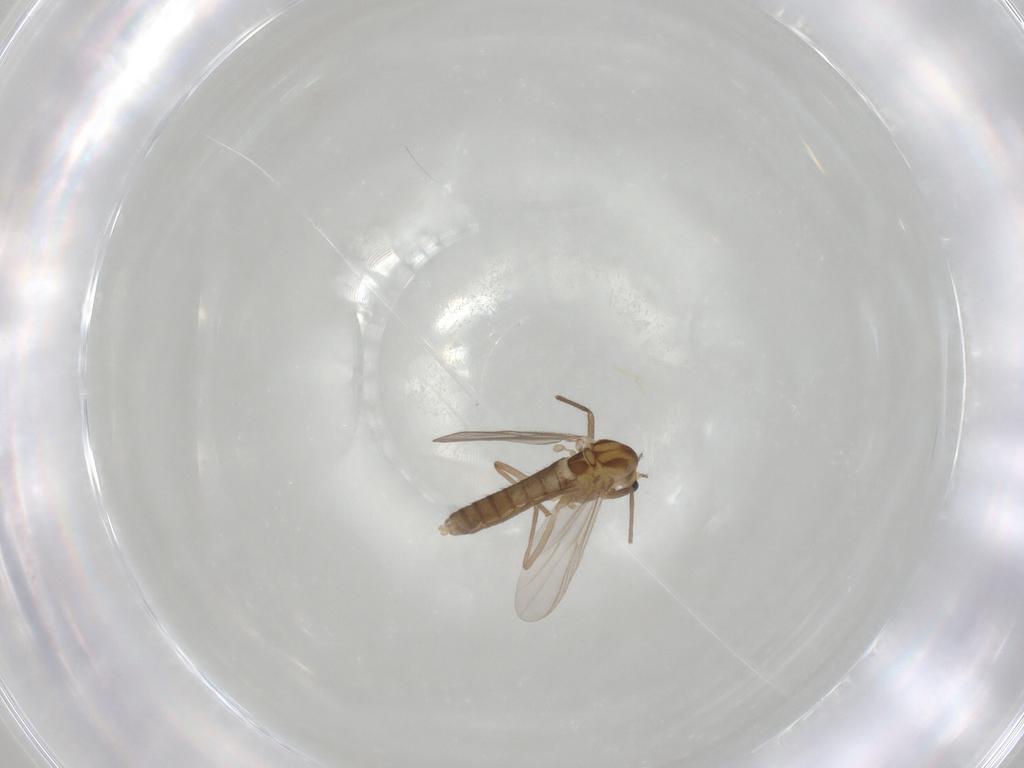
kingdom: Animalia
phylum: Arthropoda
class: Insecta
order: Diptera
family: Chironomidae
